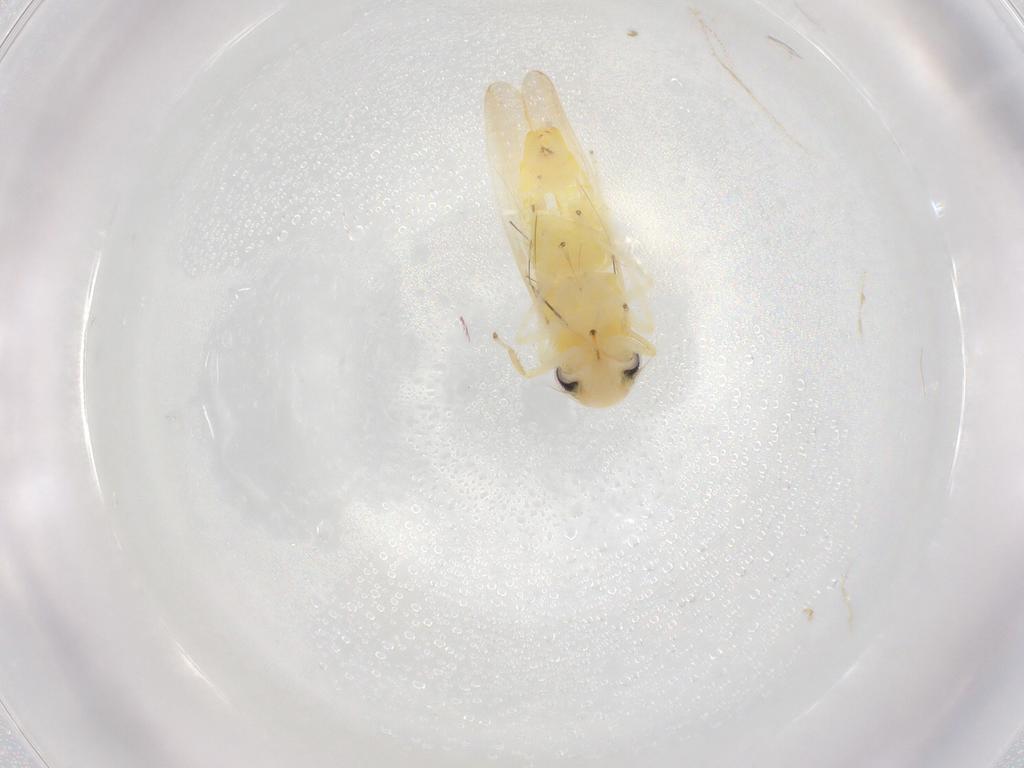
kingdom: Animalia
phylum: Arthropoda
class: Insecta
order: Hemiptera
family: Cicadellidae
